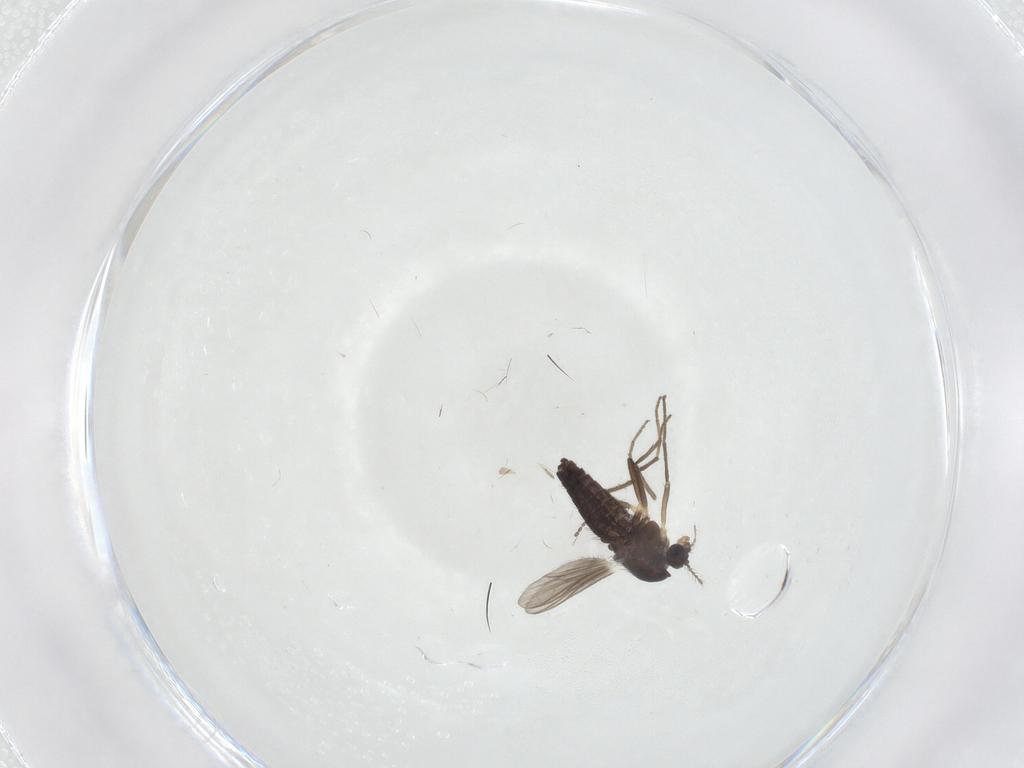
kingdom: Animalia
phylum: Arthropoda
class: Insecta
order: Diptera
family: Chironomidae
